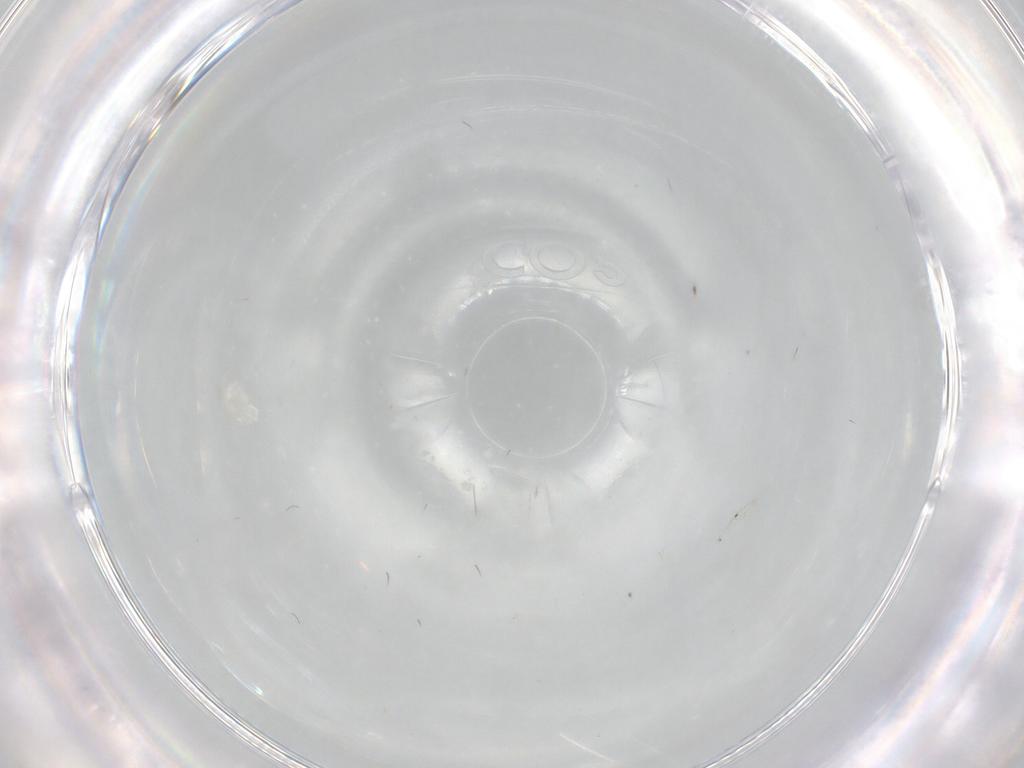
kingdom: Animalia
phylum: Arthropoda
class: Insecta
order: Diptera
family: Cecidomyiidae
